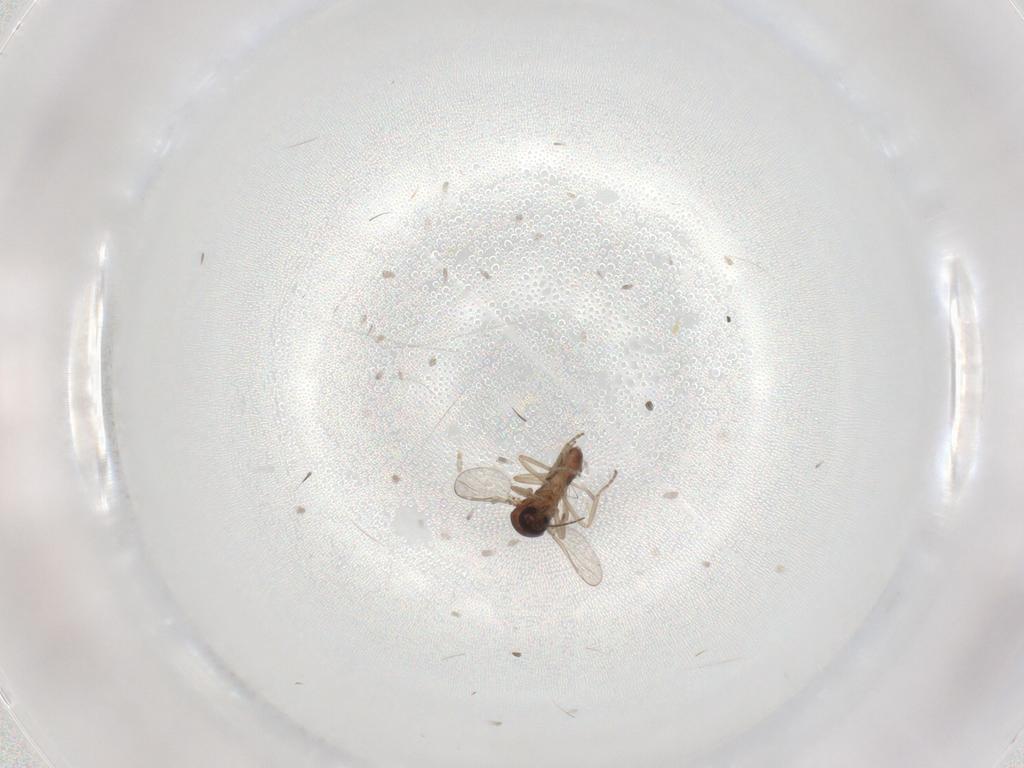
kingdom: Animalia
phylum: Arthropoda
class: Insecta
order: Diptera
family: Ceratopogonidae
